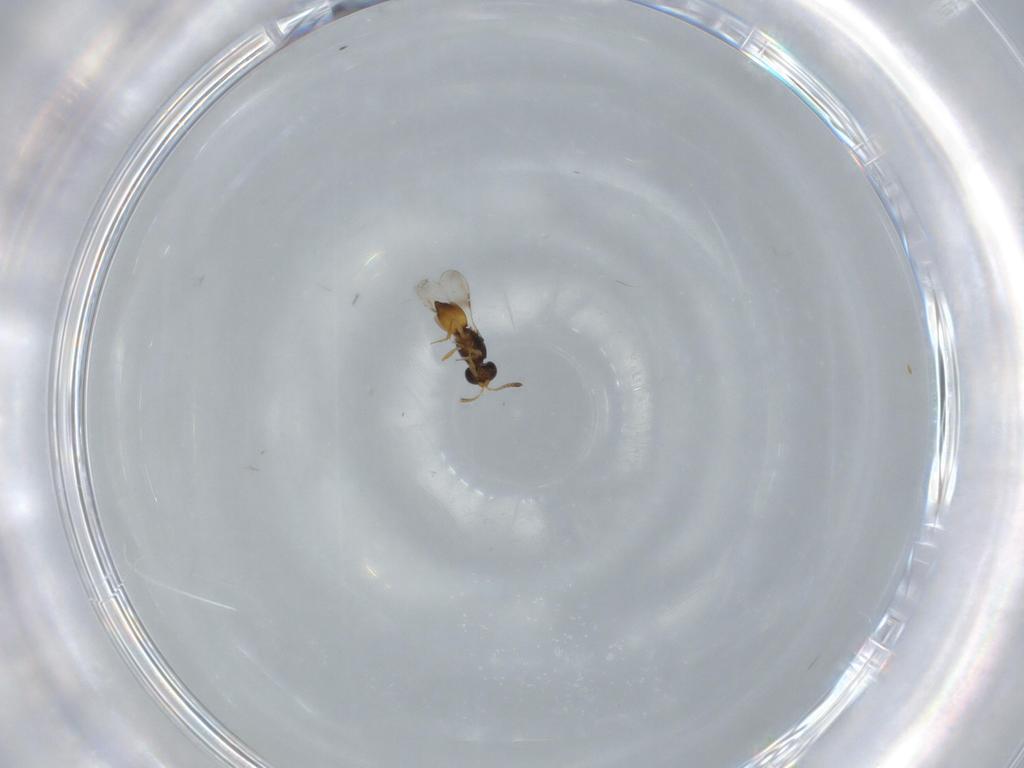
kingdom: Animalia
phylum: Arthropoda
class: Insecta
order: Hymenoptera
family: Ceraphronidae
